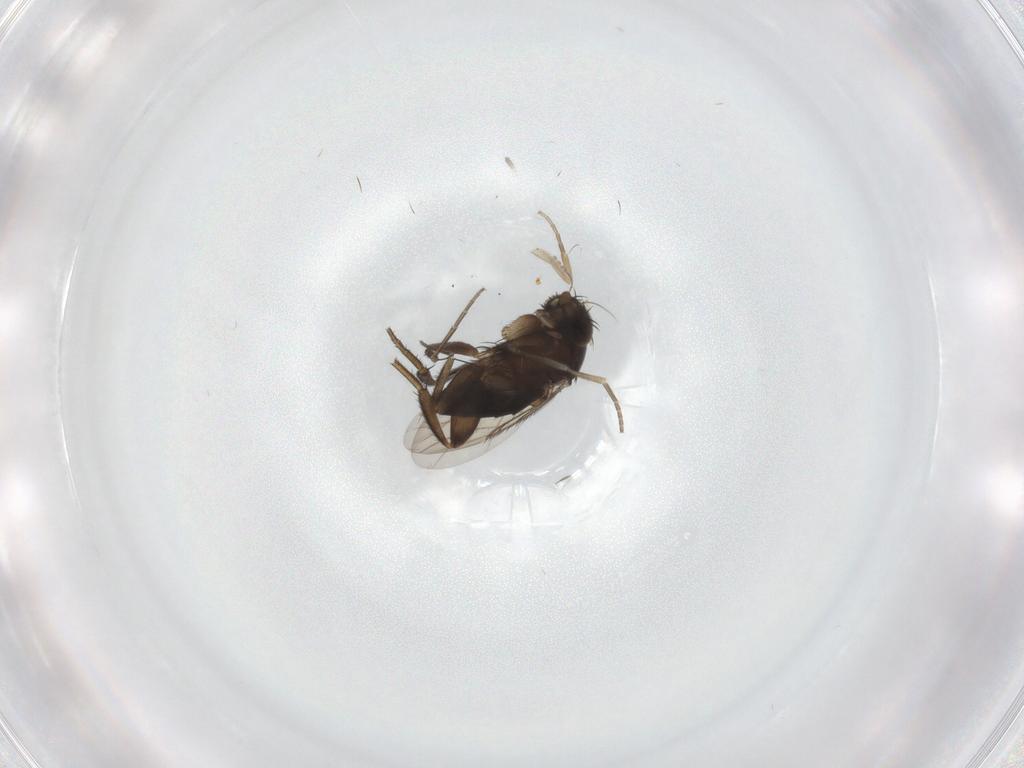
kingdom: Animalia
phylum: Arthropoda
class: Insecta
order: Diptera
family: Phoridae
